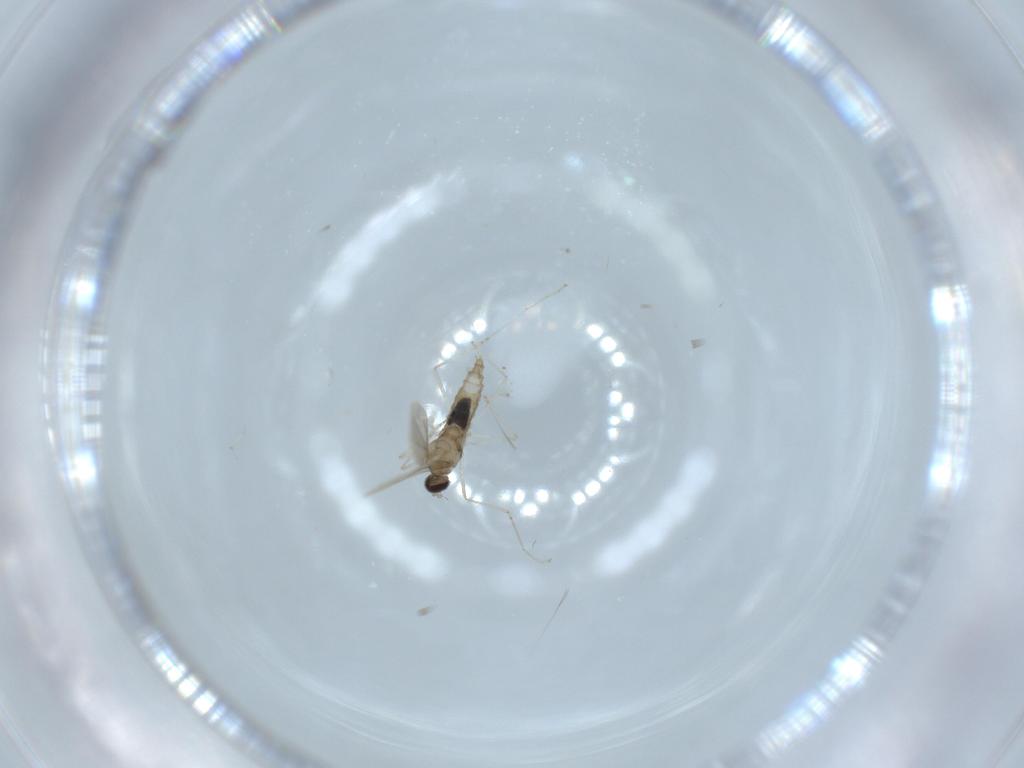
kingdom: Animalia
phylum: Arthropoda
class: Insecta
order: Diptera
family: Cecidomyiidae
